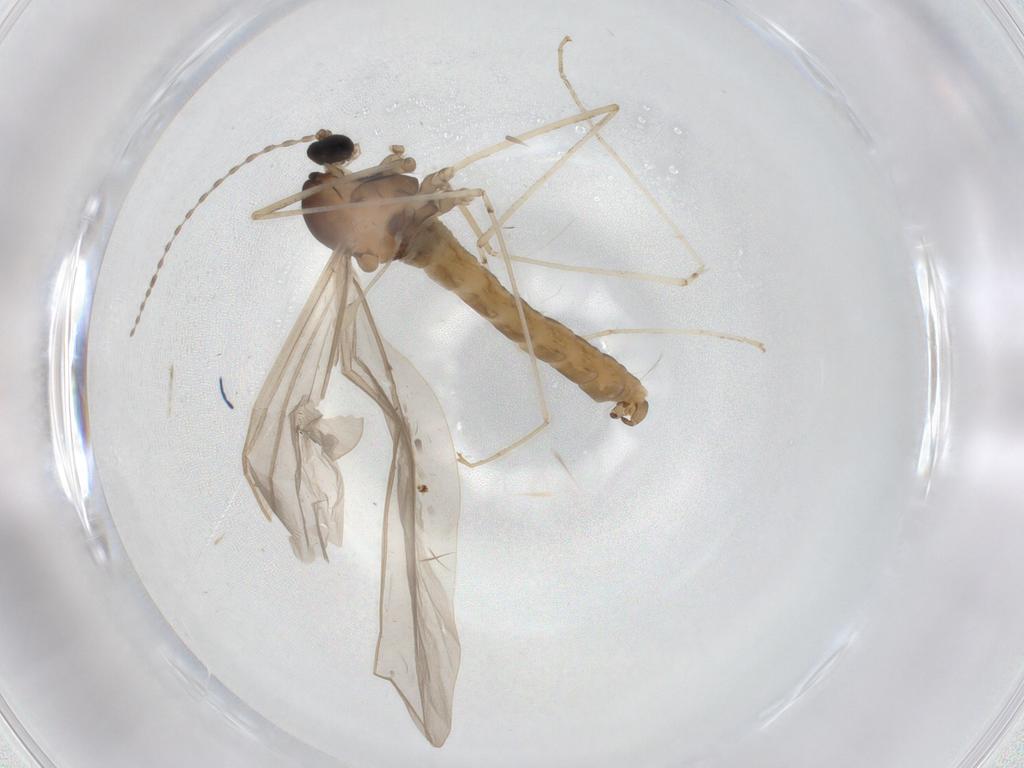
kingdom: Animalia
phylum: Arthropoda
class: Insecta
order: Diptera
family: Cecidomyiidae
